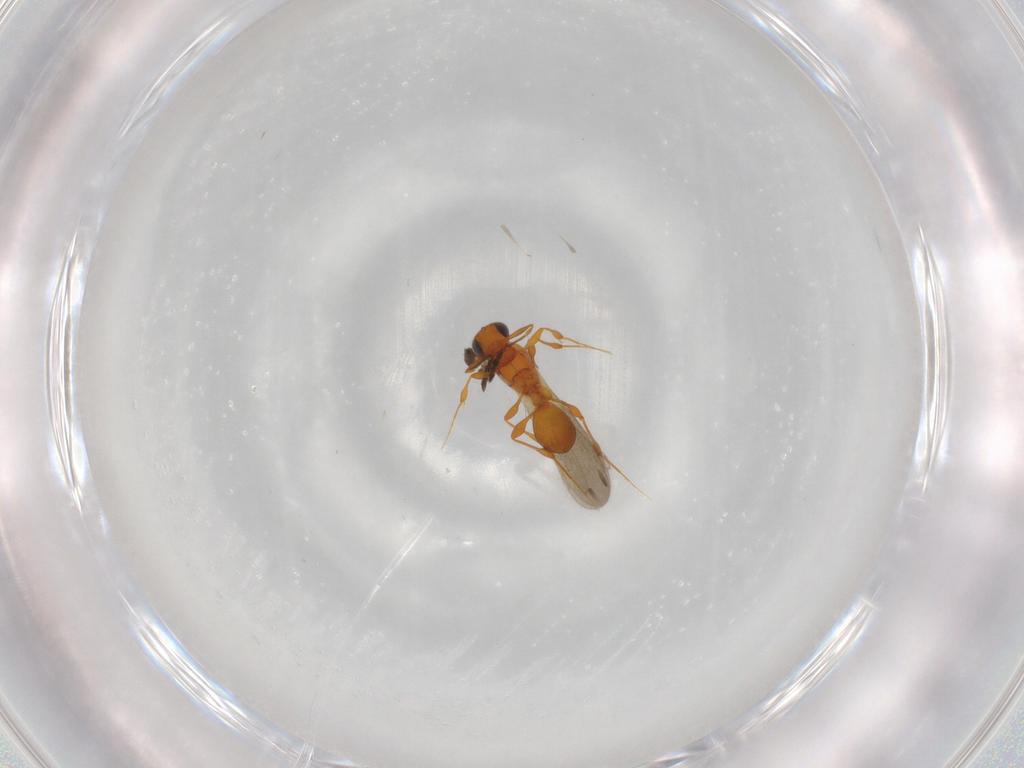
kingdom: Animalia
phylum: Arthropoda
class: Insecta
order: Hymenoptera
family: Platygastridae
